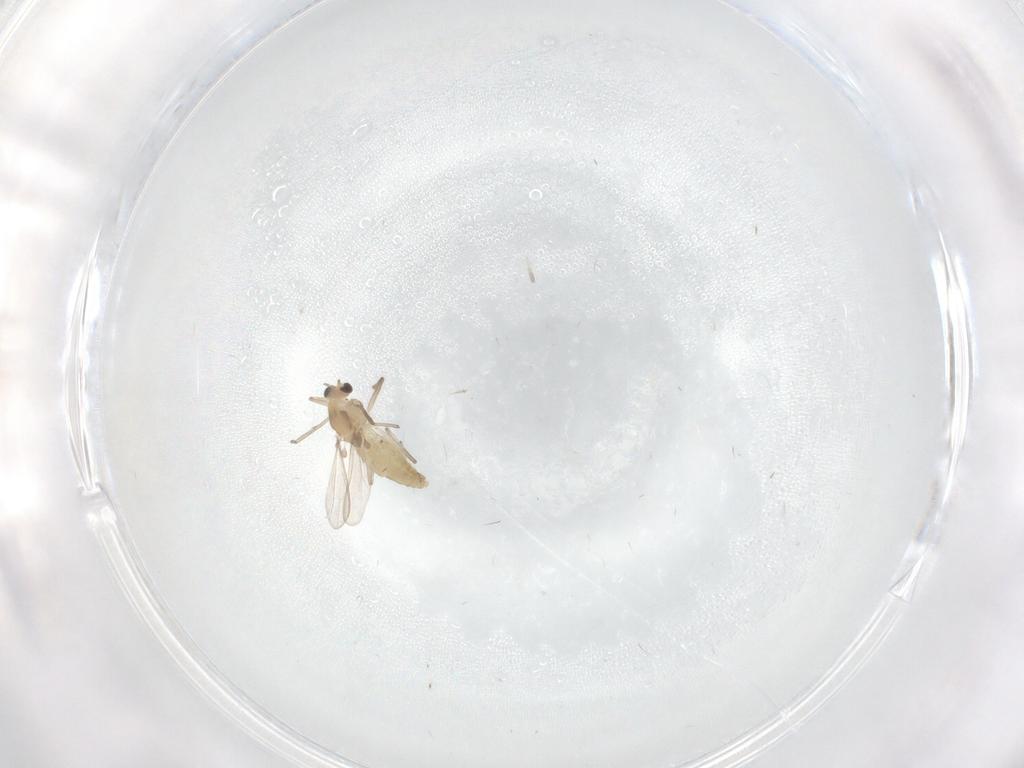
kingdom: Animalia
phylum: Arthropoda
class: Insecta
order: Diptera
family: Chironomidae
